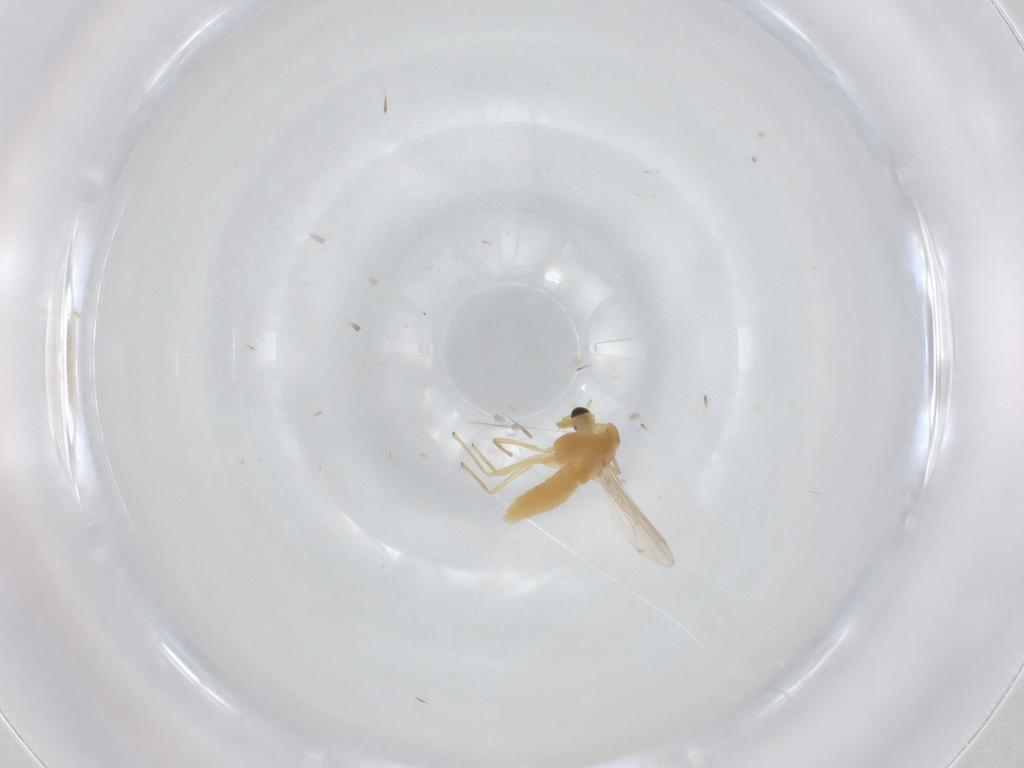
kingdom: Animalia
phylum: Arthropoda
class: Insecta
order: Diptera
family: Chironomidae
